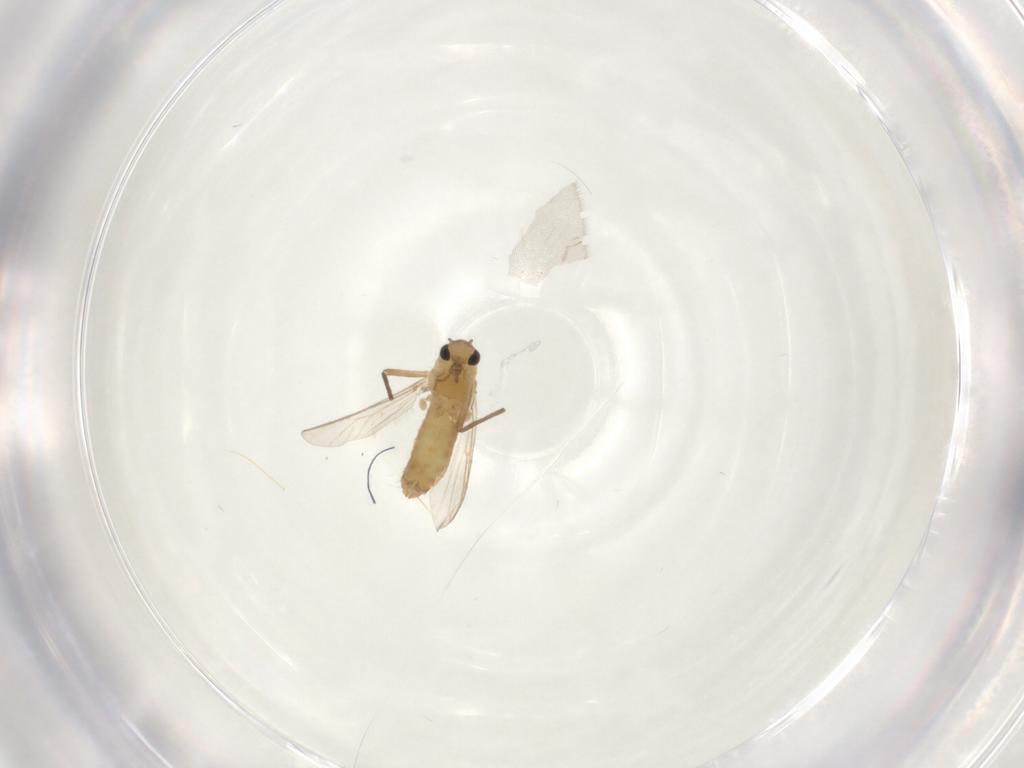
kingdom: Animalia
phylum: Arthropoda
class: Insecta
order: Diptera
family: Chironomidae
